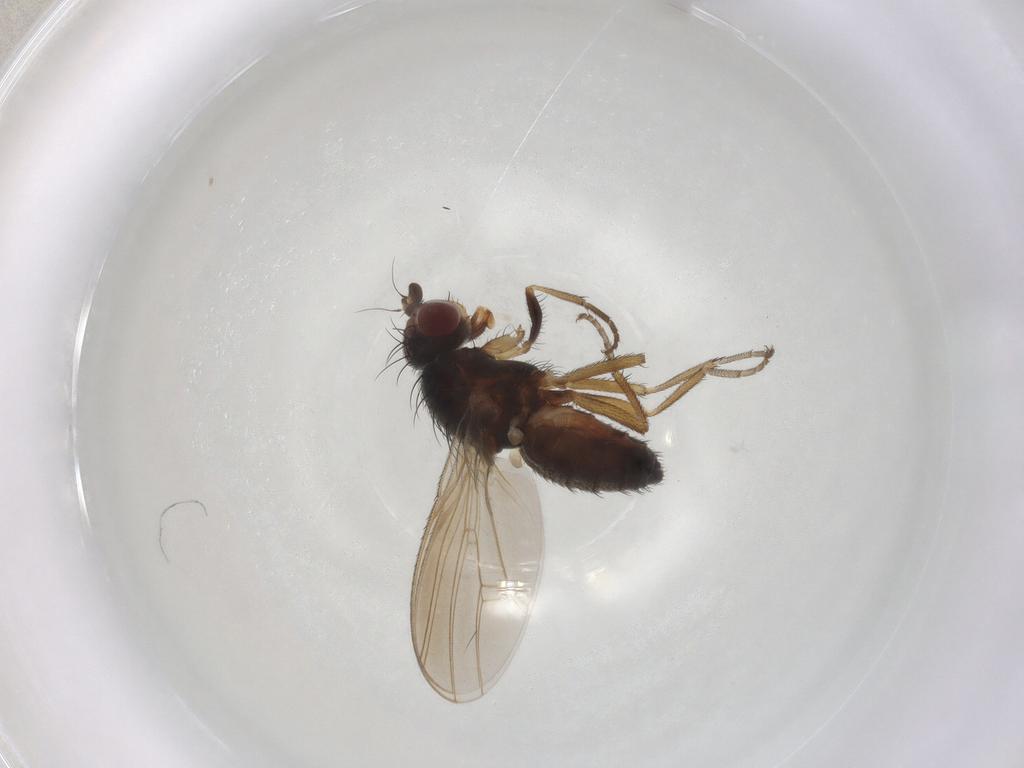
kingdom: Animalia
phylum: Arthropoda
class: Insecta
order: Diptera
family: Heleomyzidae
